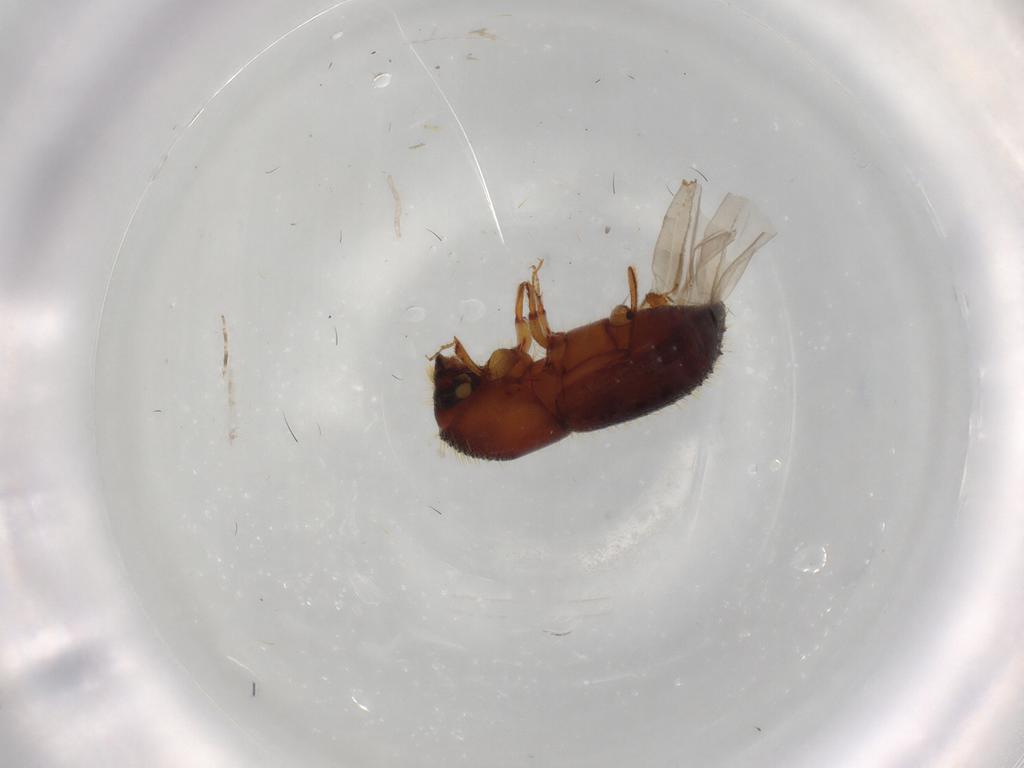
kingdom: Animalia
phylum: Arthropoda
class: Insecta
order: Coleoptera
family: Curculionidae
